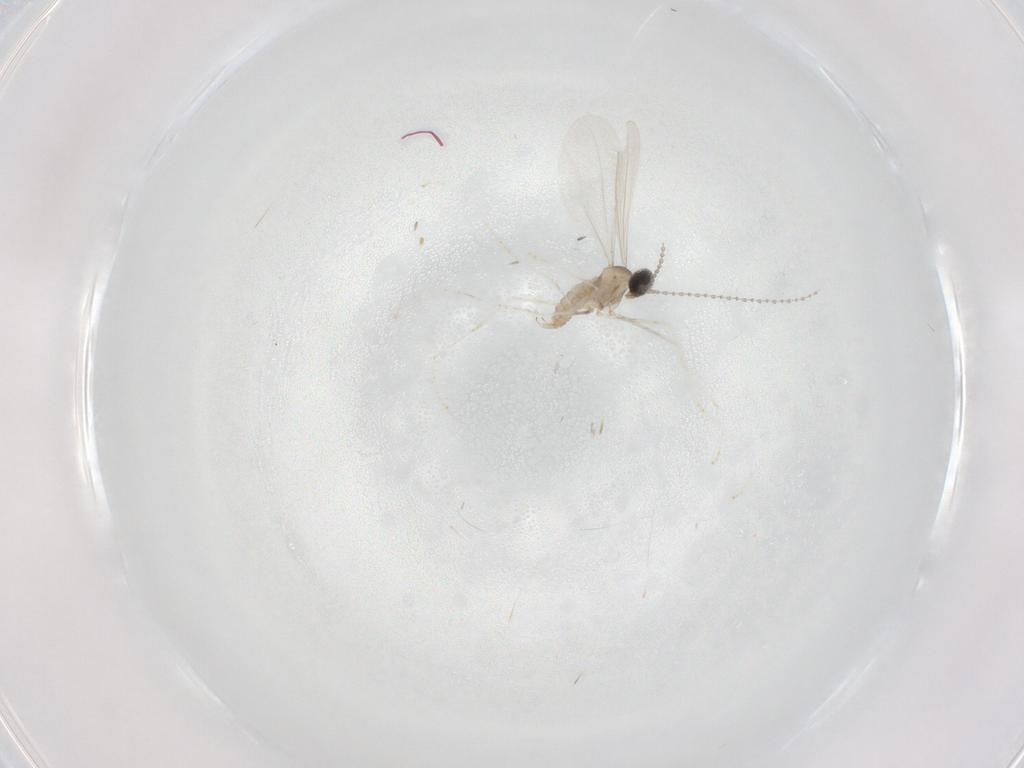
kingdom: Animalia
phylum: Arthropoda
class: Insecta
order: Diptera
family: Cecidomyiidae
